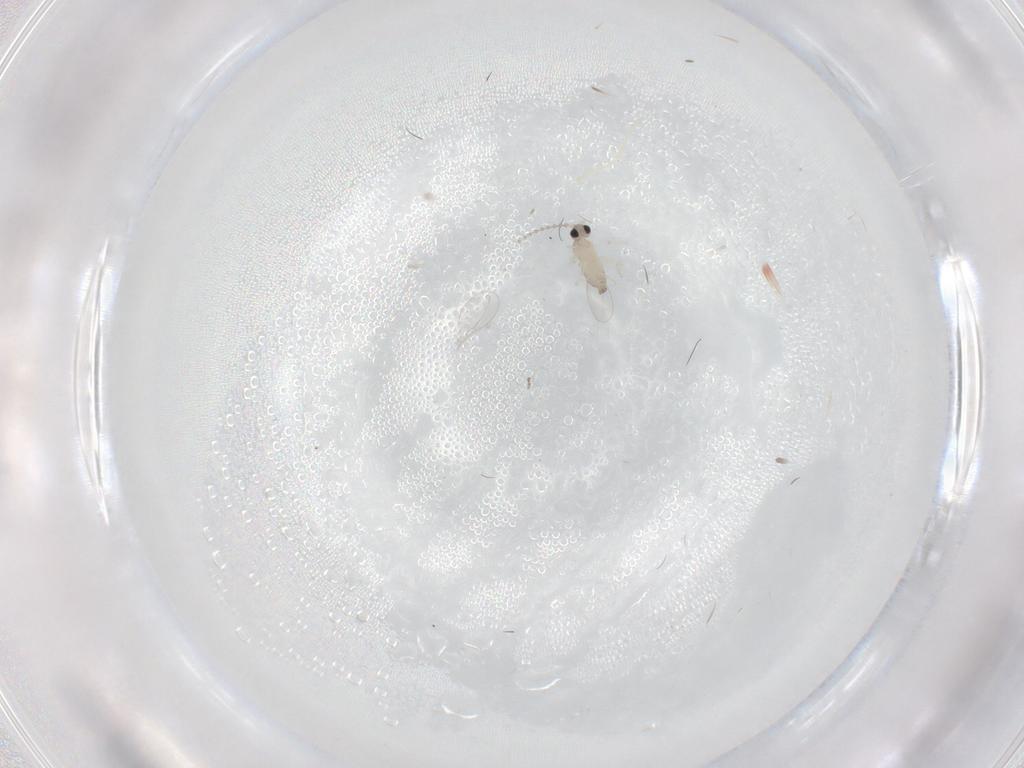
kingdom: Animalia
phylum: Arthropoda
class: Insecta
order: Diptera
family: Cecidomyiidae
